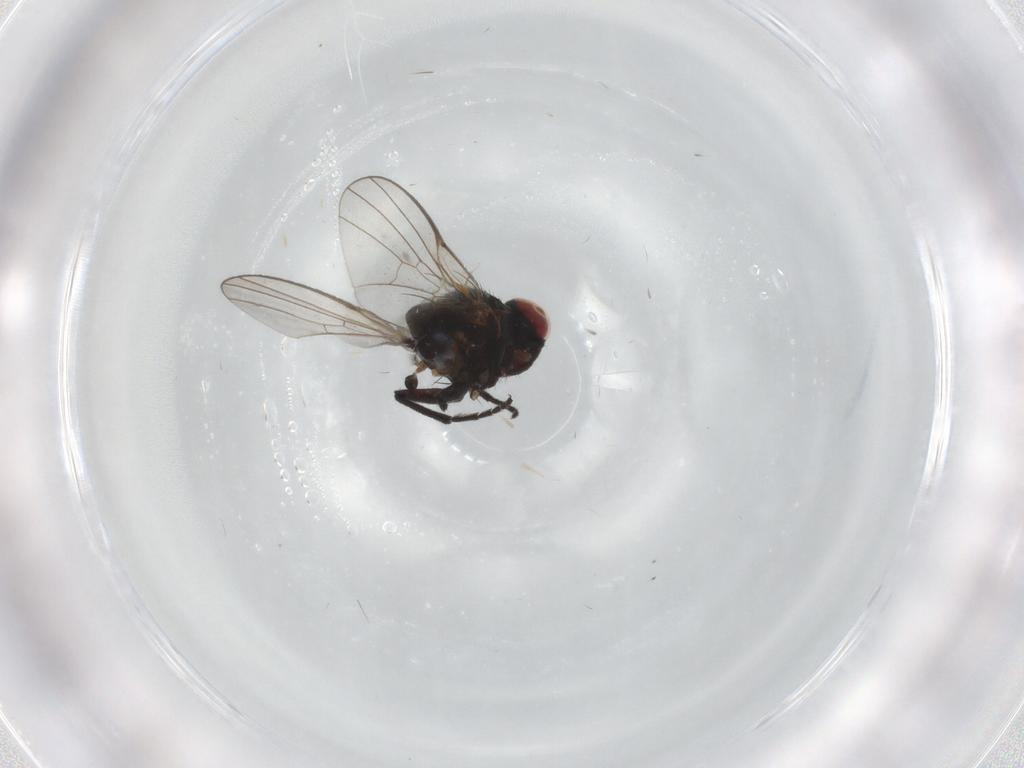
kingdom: Animalia
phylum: Arthropoda
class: Insecta
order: Diptera
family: Agromyzidae
